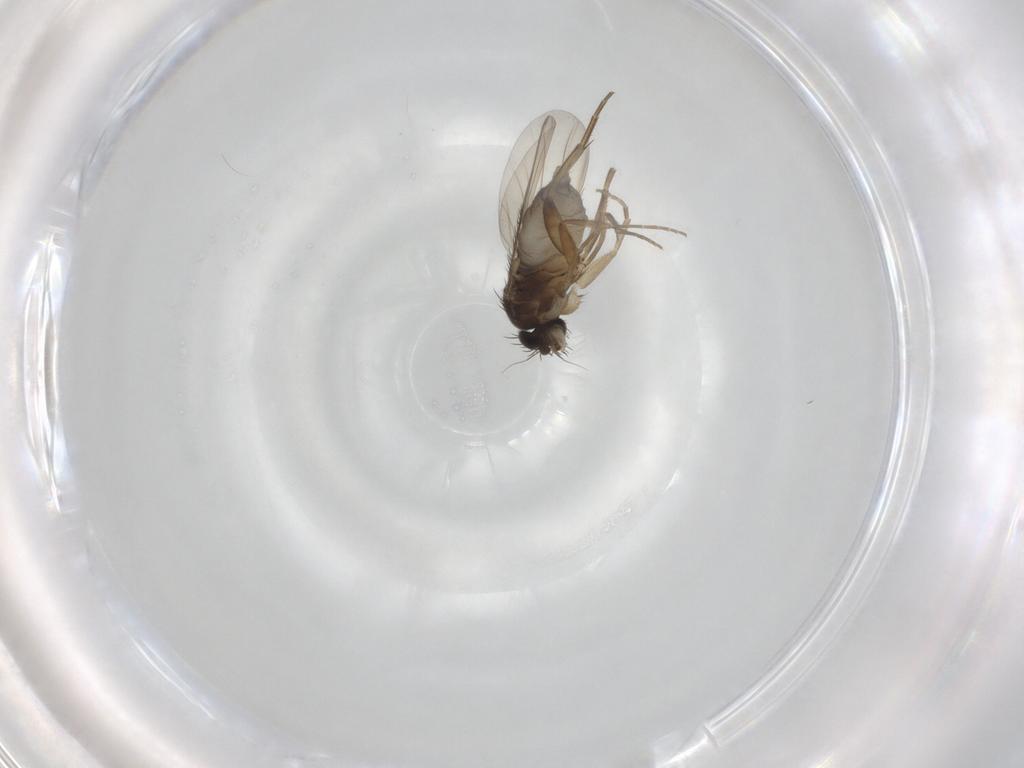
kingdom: Animalia
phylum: Arthropoda
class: Insecta
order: Diptera
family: Phoridae
